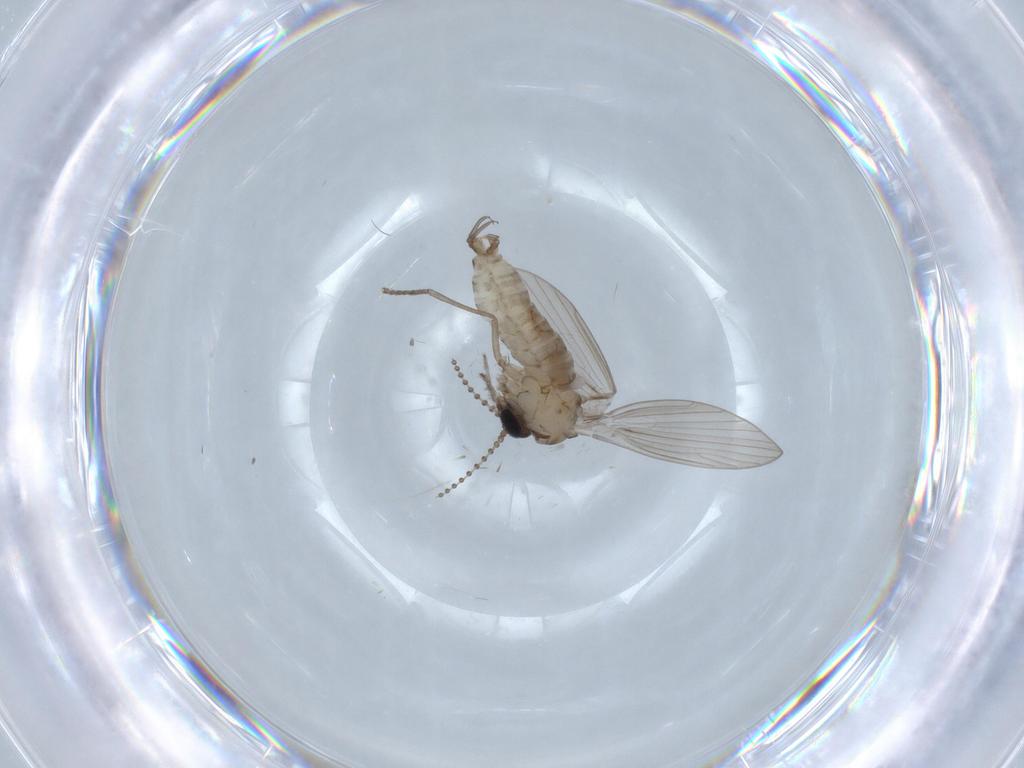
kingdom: Animalia
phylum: Arthropoda
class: Insecta
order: Diptera
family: Psychodidae
